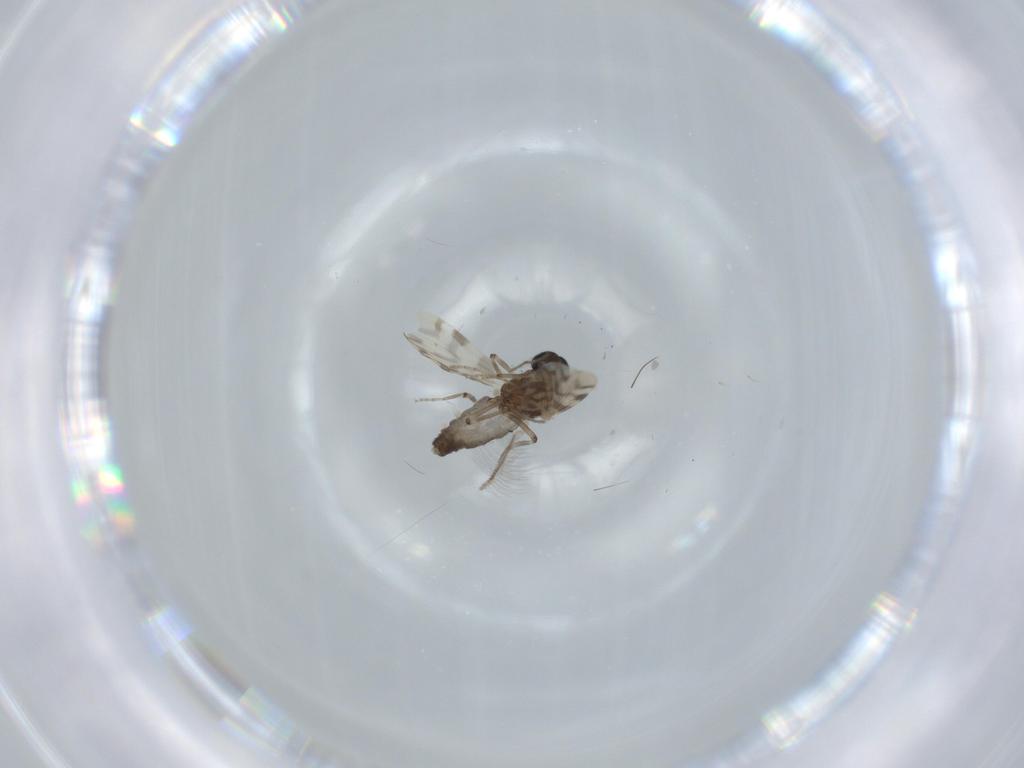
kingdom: Animalia
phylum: Arthropoda
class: Insecta
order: Diptera
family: Ceratopogonidae
